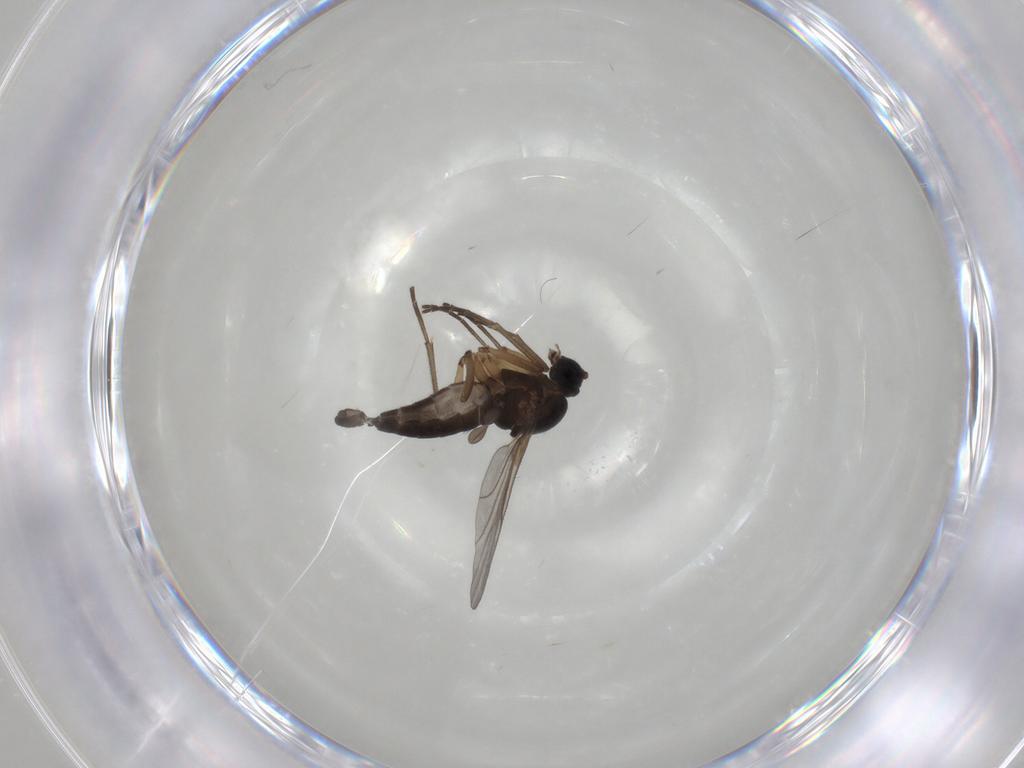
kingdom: Animalia
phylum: Arthropoda
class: Insecta
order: Diptera
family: Sciaridae
